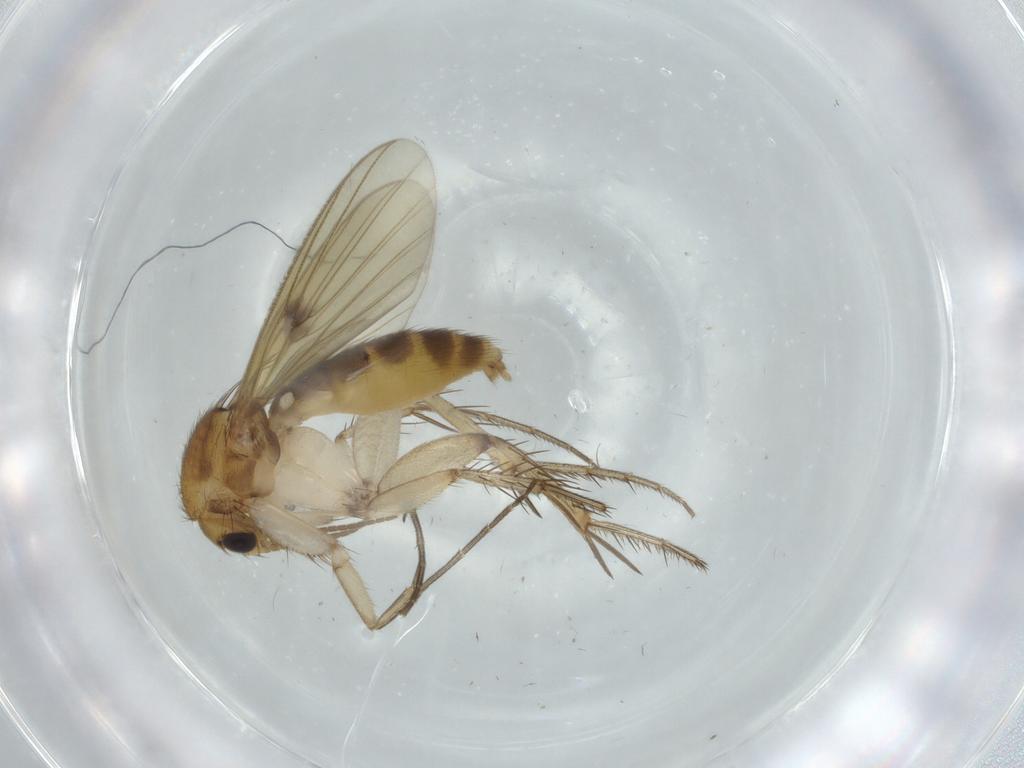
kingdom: Animalia
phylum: Arthropoda
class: Insecta
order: Diptera
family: Mycetophilidae
